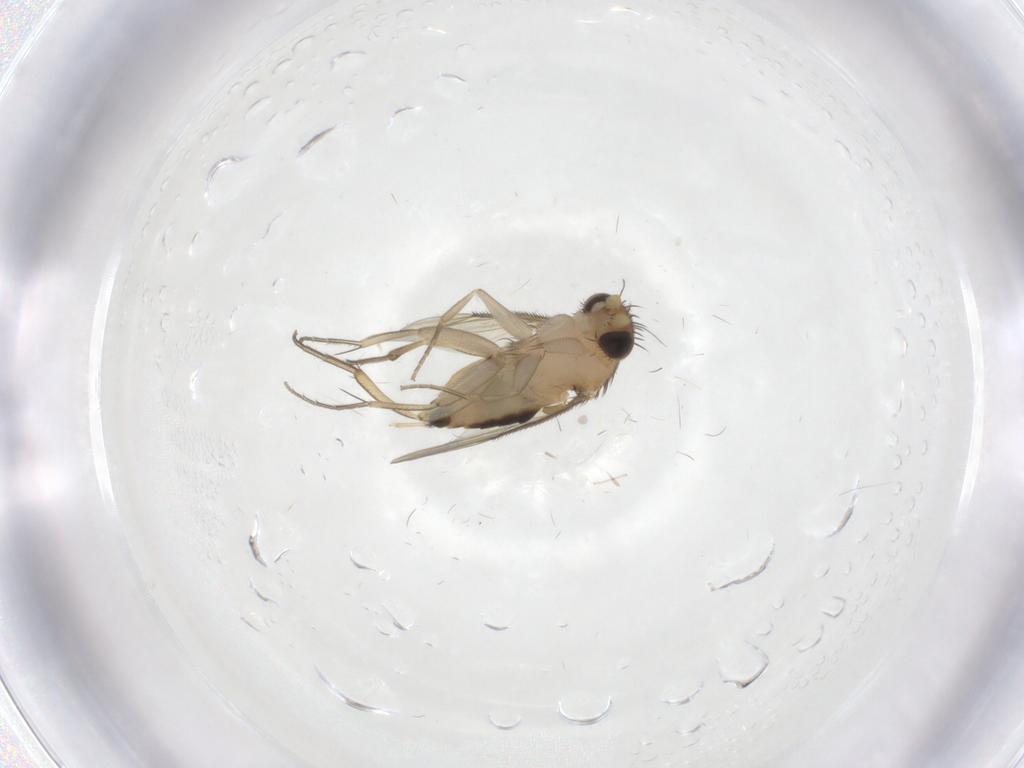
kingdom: Animalia
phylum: Arthropoda
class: Insecta
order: Diptera
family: Phoridae
